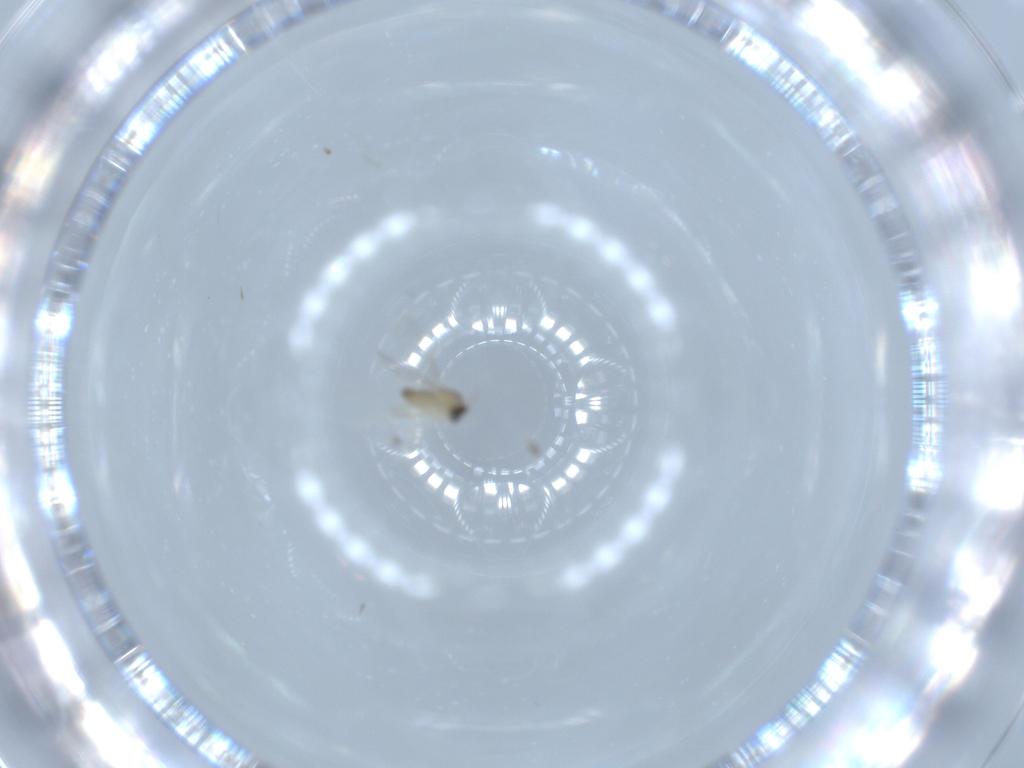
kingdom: Animalia
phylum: Arthropoda
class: Insecta
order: Diptera
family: Cecidomyiidae
